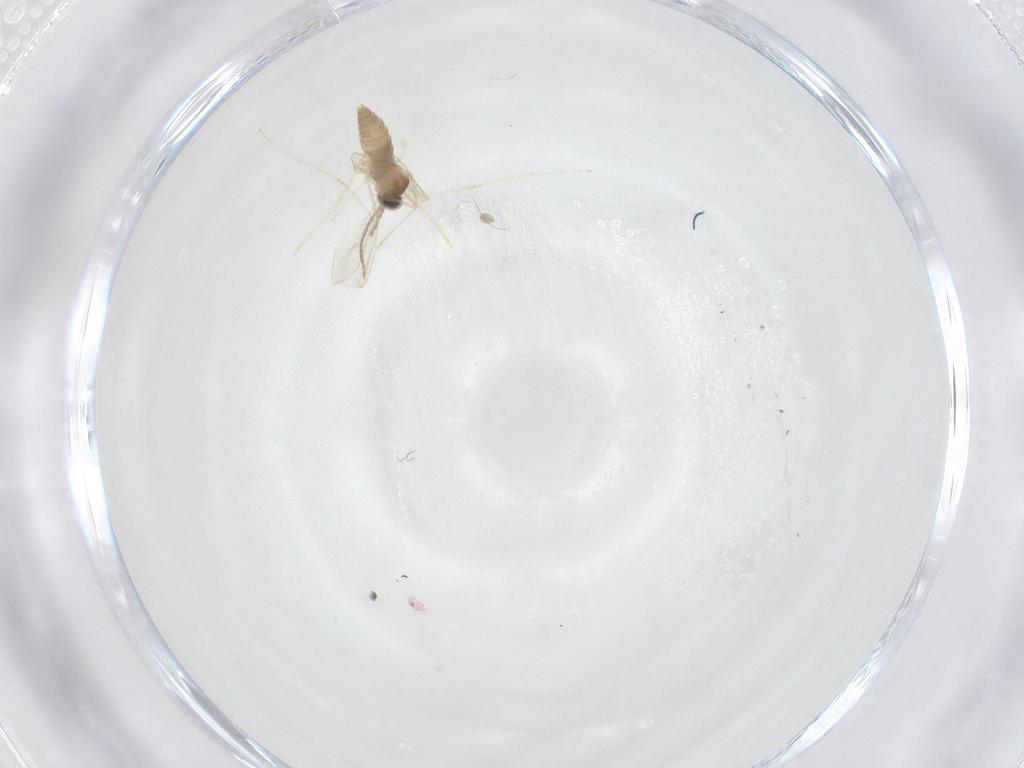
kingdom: Animalia
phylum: Arthropoda
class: Insecta
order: Diptera
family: Cecidomyiidae
